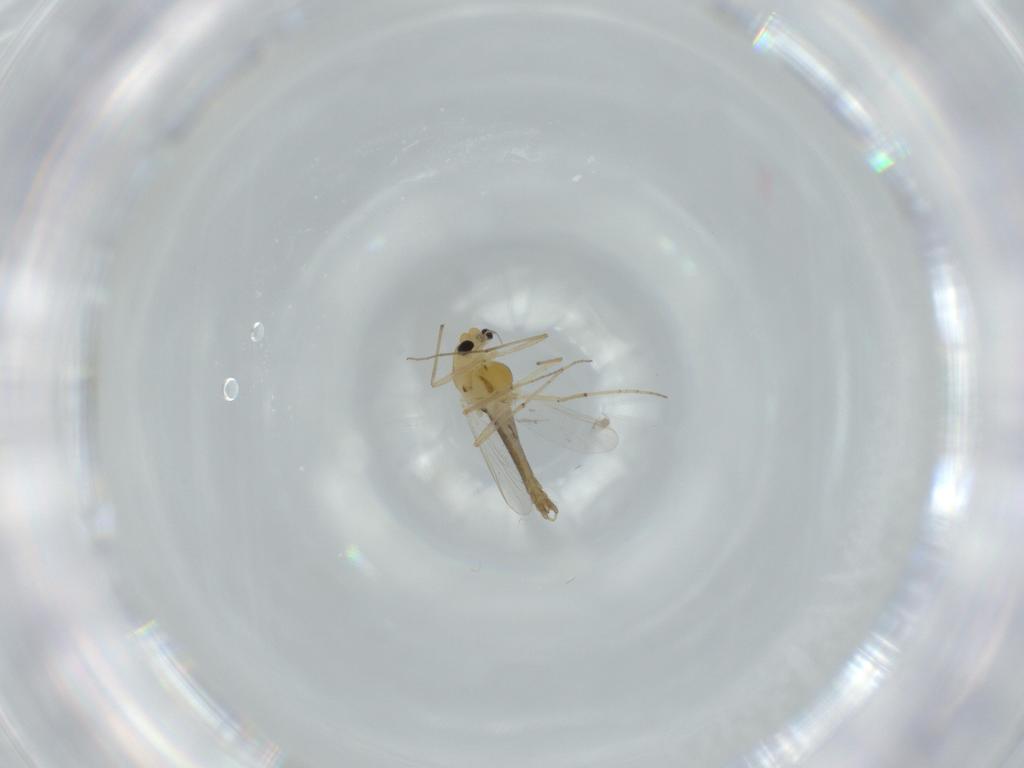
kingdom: Animalia
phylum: Arthropoda
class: Insecta
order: Diptera
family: Chironomidae
